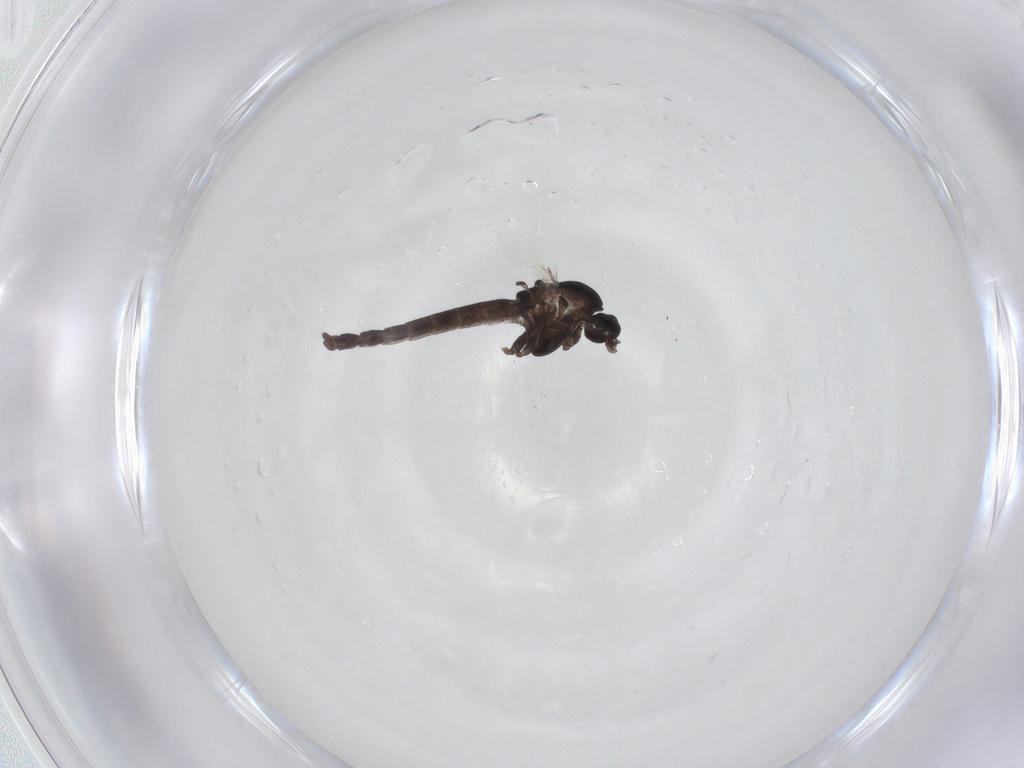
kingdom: Animalia
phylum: Arthropoda
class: Insecta
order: Diptera
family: Chironomidae
